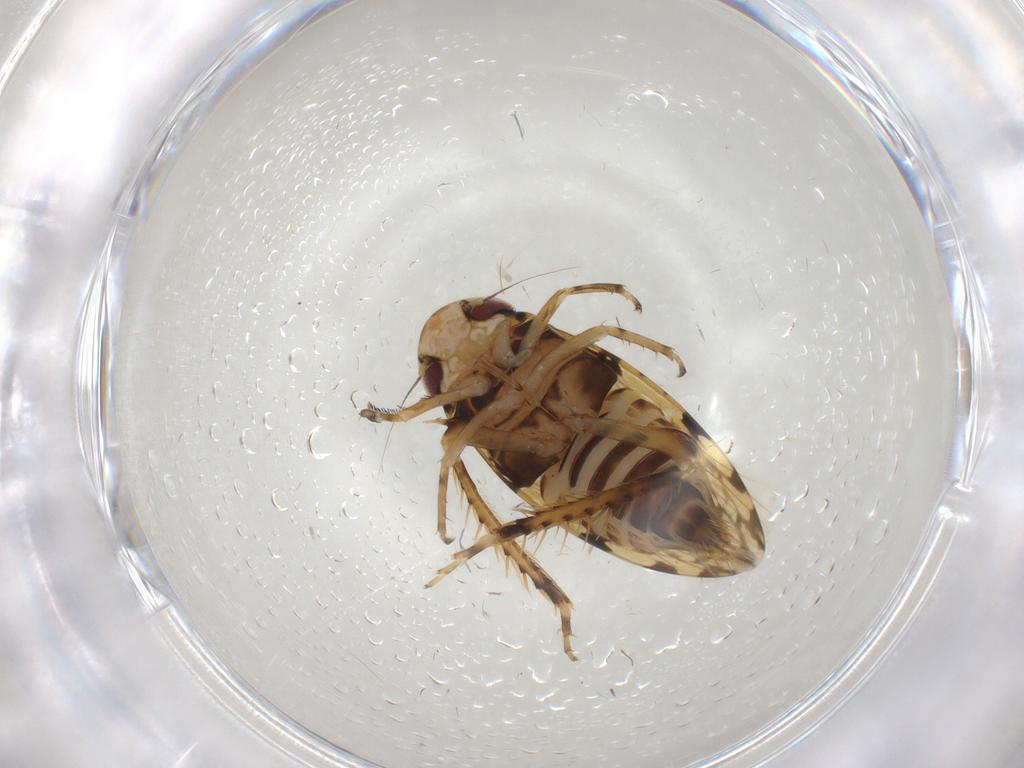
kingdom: Animalia
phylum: Arthropoda
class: Insecta
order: Hemiptera
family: Cicadellidae
